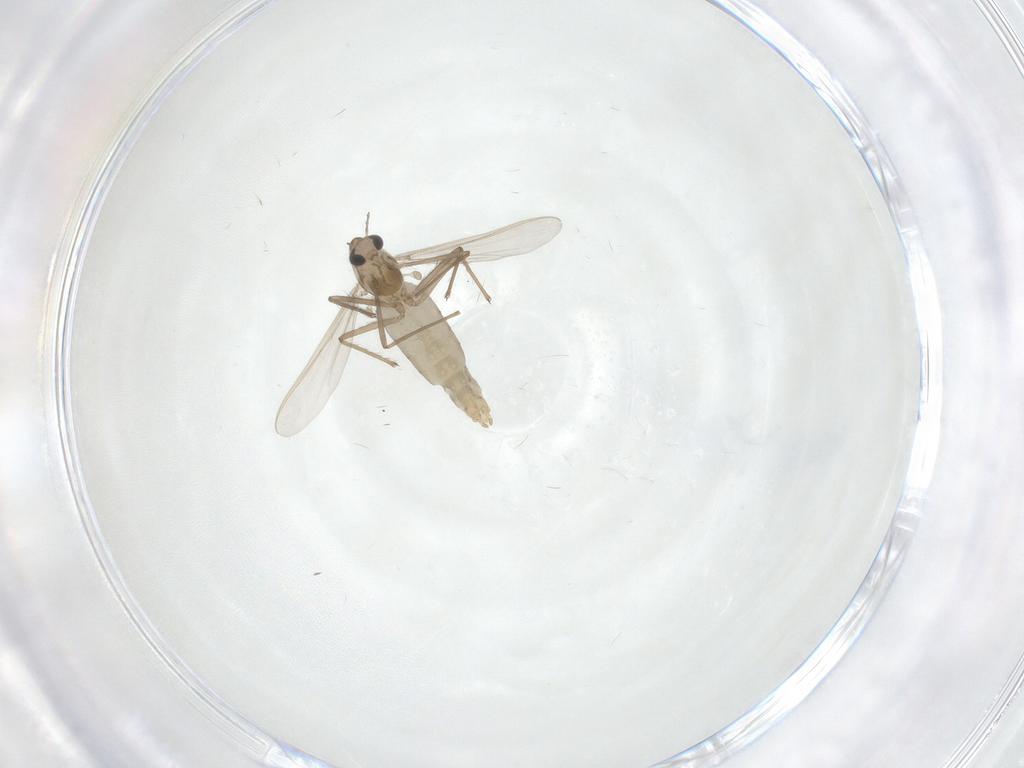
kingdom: Animalia
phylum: Arthropoda
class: Insecta
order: Diptera
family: Chironomidae
